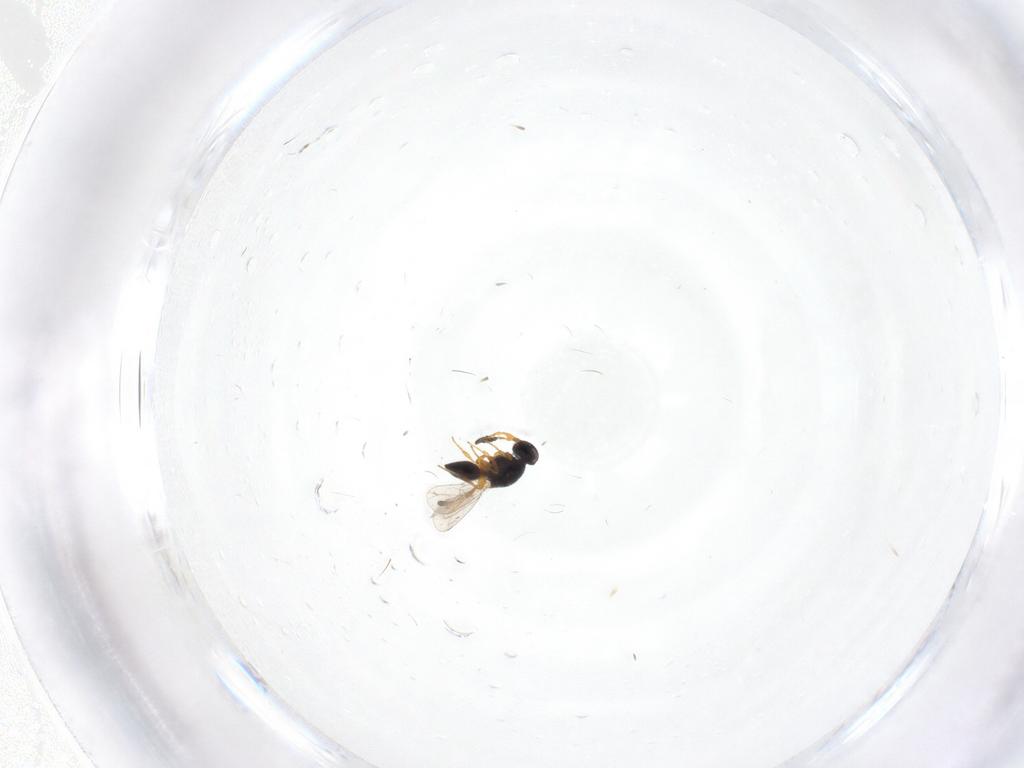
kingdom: Animalia
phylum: Arthropoda
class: Insecta
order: Hymenoptera
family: Platygastridae
